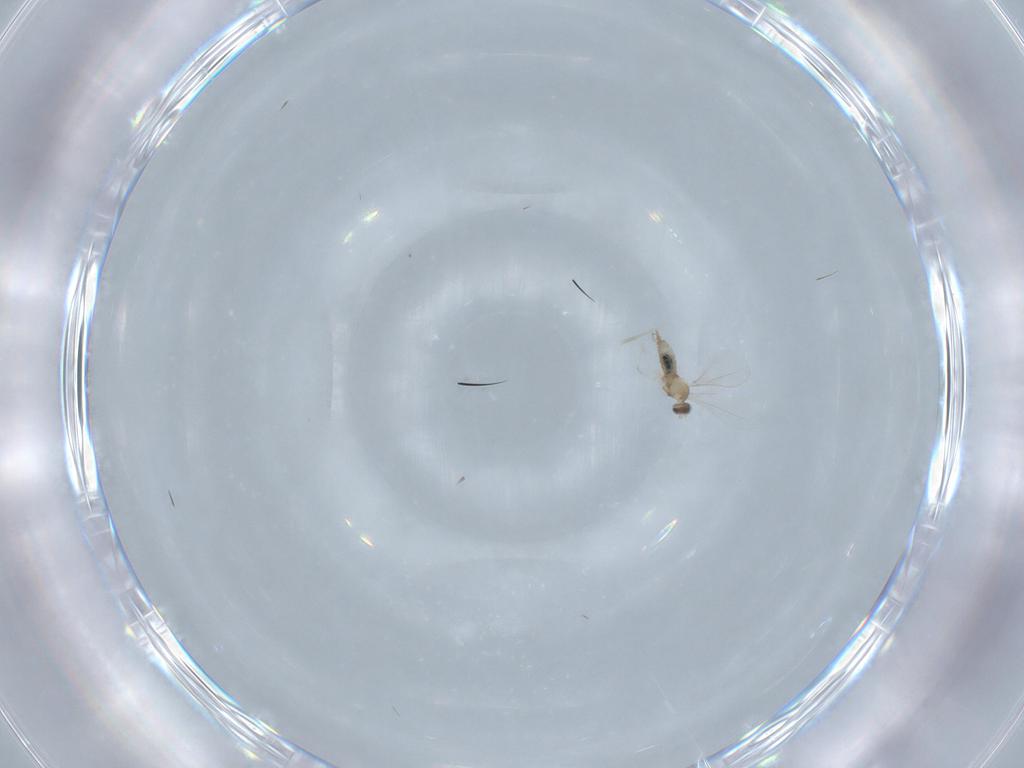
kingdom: Animalia
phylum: Arthropoda
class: Insecta
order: Diptera
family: Cecidomyiidae
